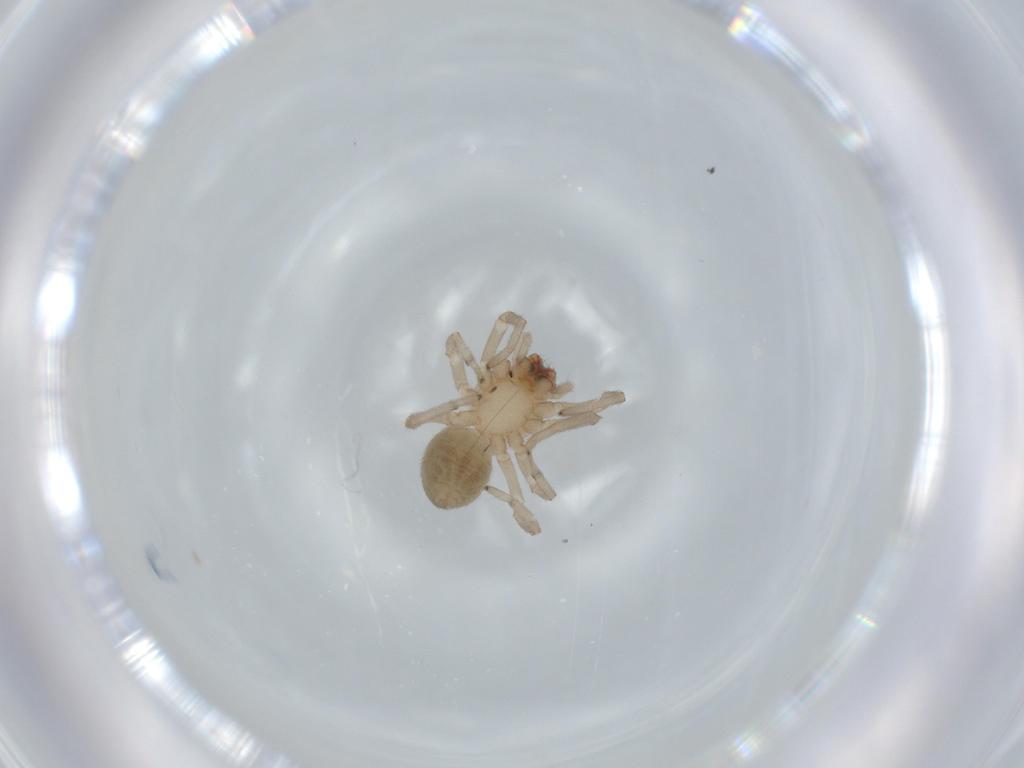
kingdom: Animalia
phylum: Arthropoda
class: Arachnida
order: Araneae
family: Trachelidae
